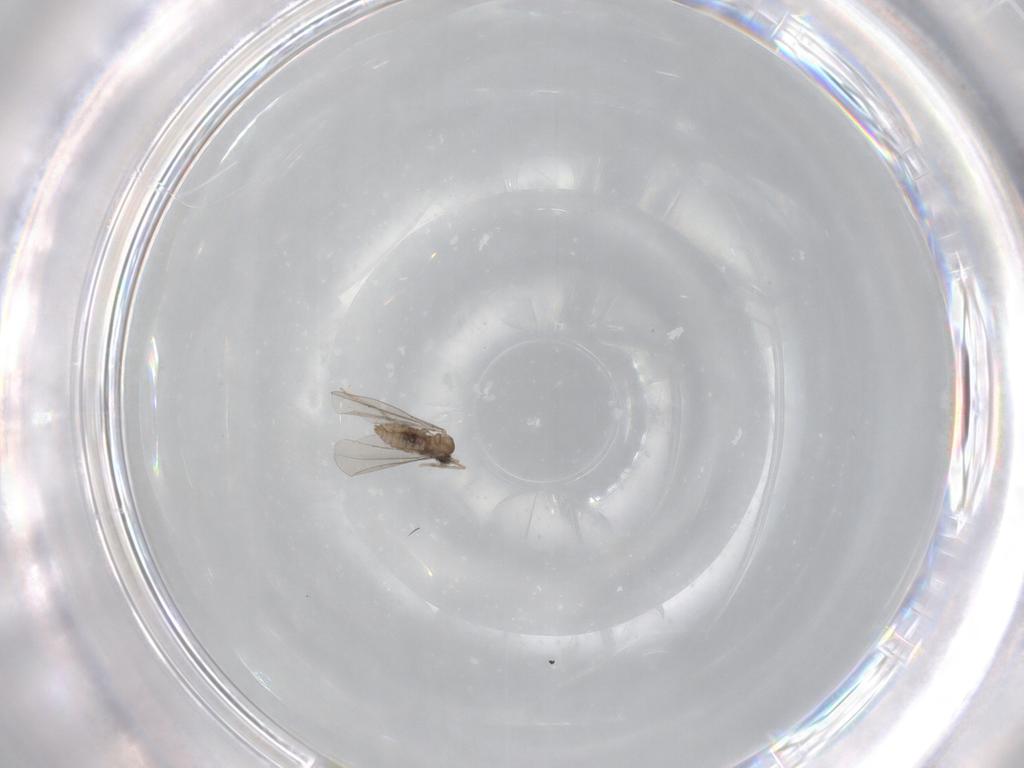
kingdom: Animalia
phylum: Arthropoda
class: Insecta
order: Diptera
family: Cecidomyiidae
